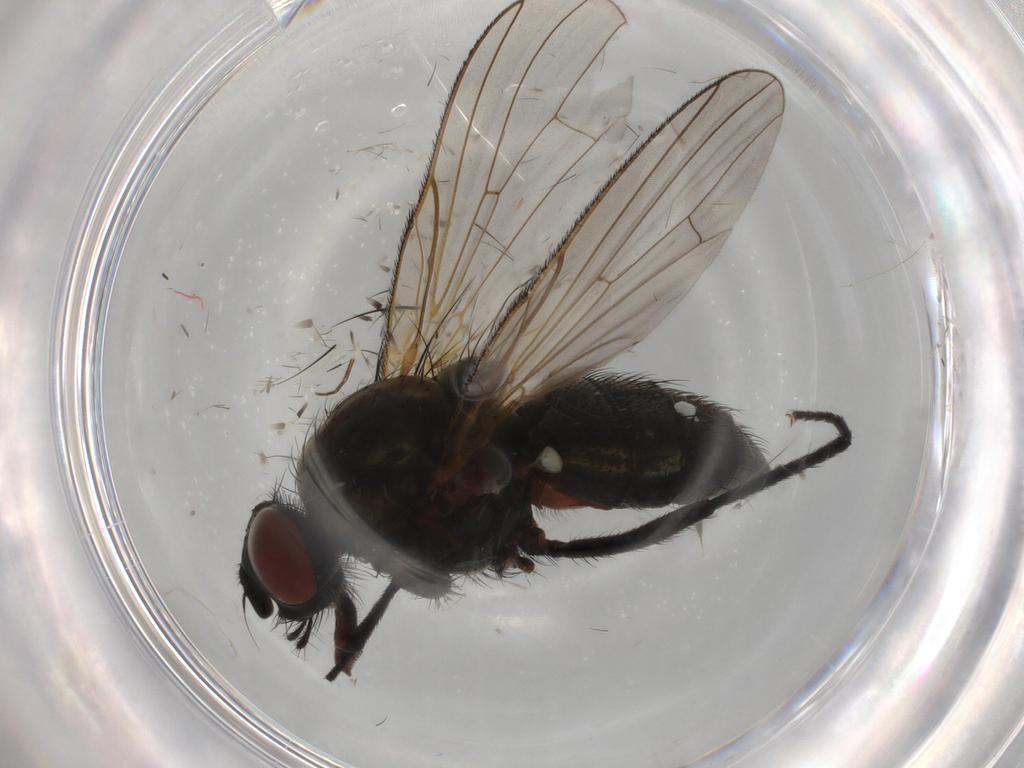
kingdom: Animalia
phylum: Arthropoda
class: Insecta
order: Diptera
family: Anthomyiidae
